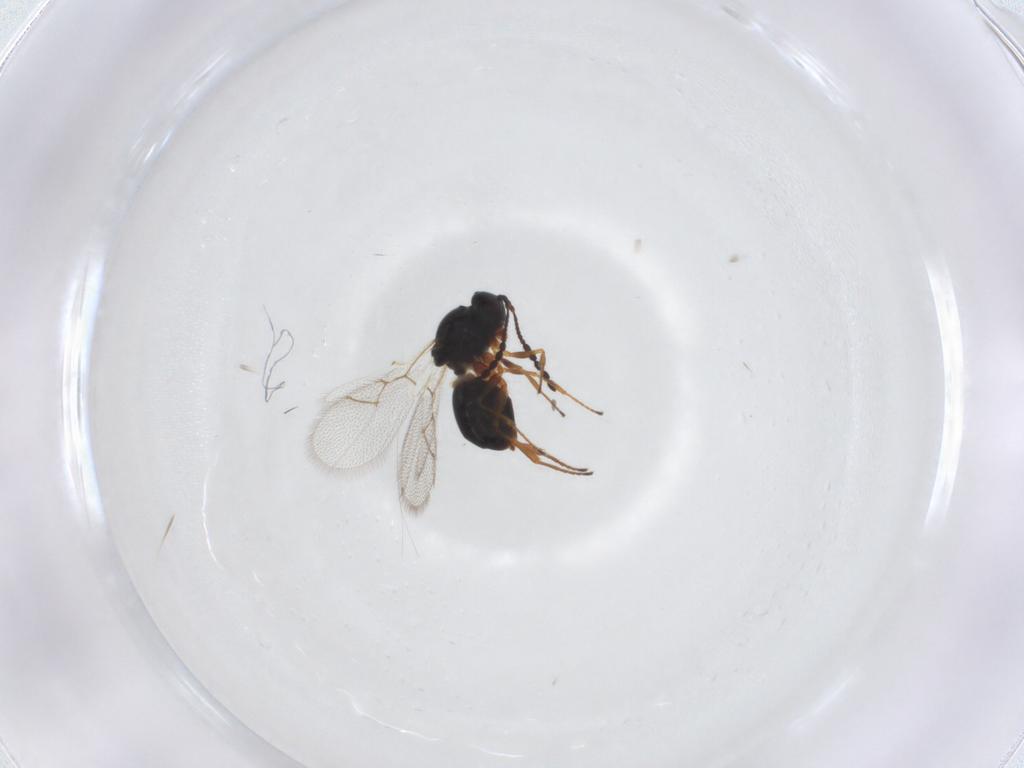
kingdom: Animalia
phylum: Arthropoda
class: Insecta
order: Hymenoptera
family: Figitidae
